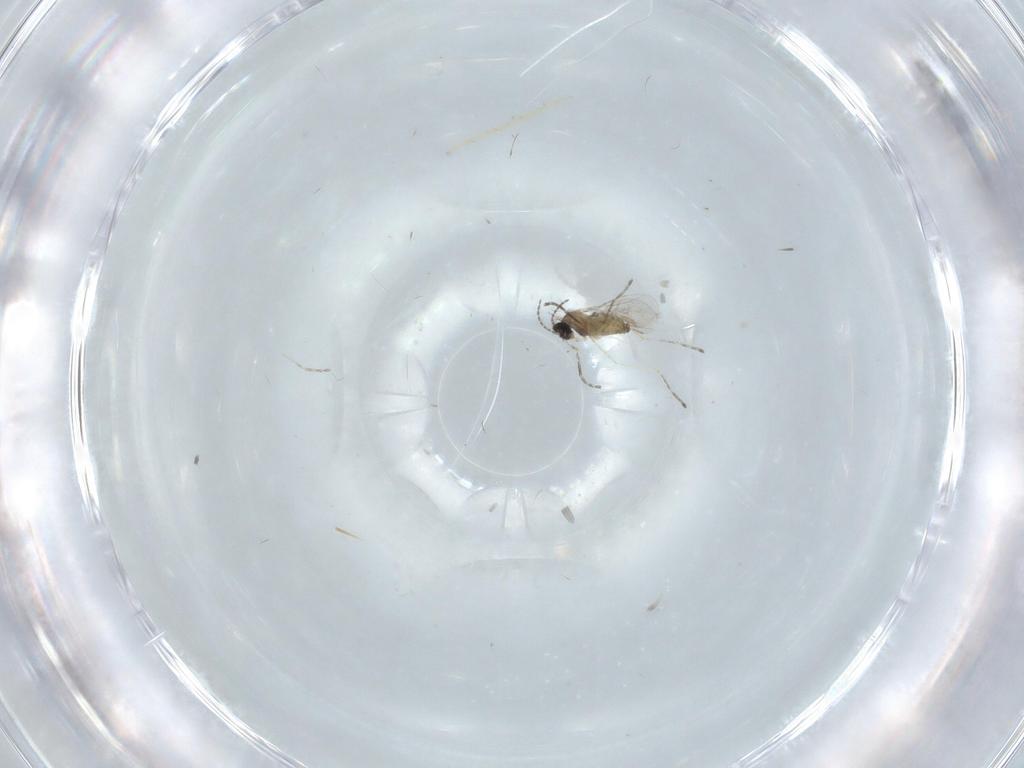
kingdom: Animalia
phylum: Arthropoda
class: Insecta
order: Diptera
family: Chironomidae
